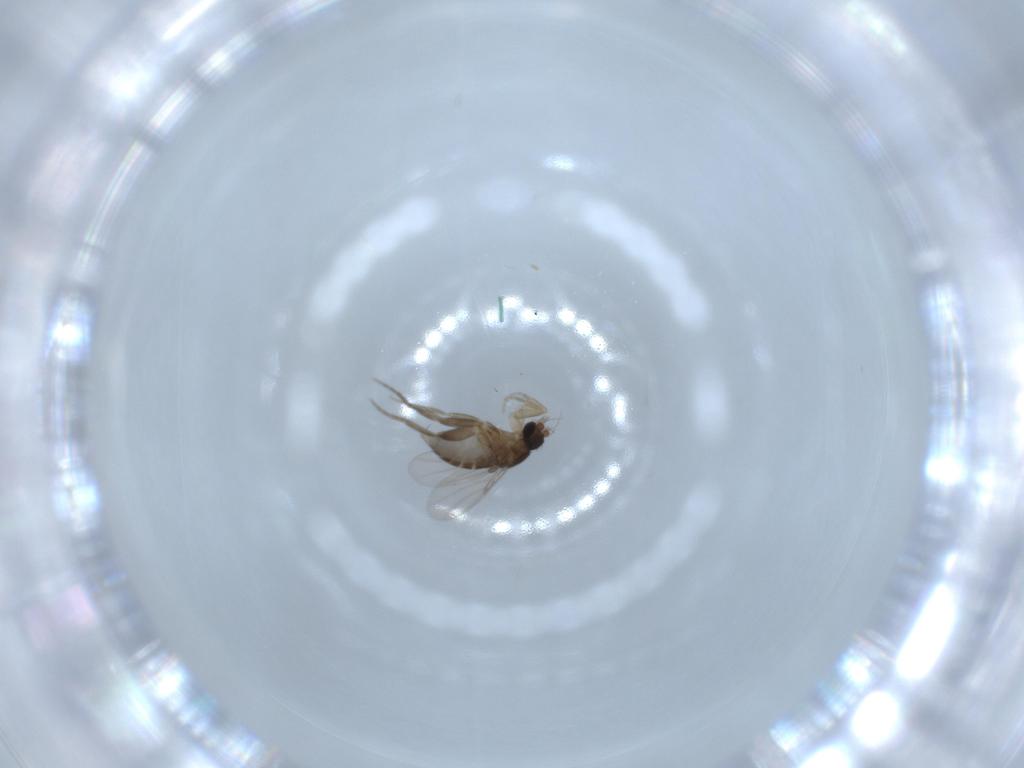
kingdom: Animalia
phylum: Arthropoda
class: Insecta
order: Diptera
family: Phoridae
